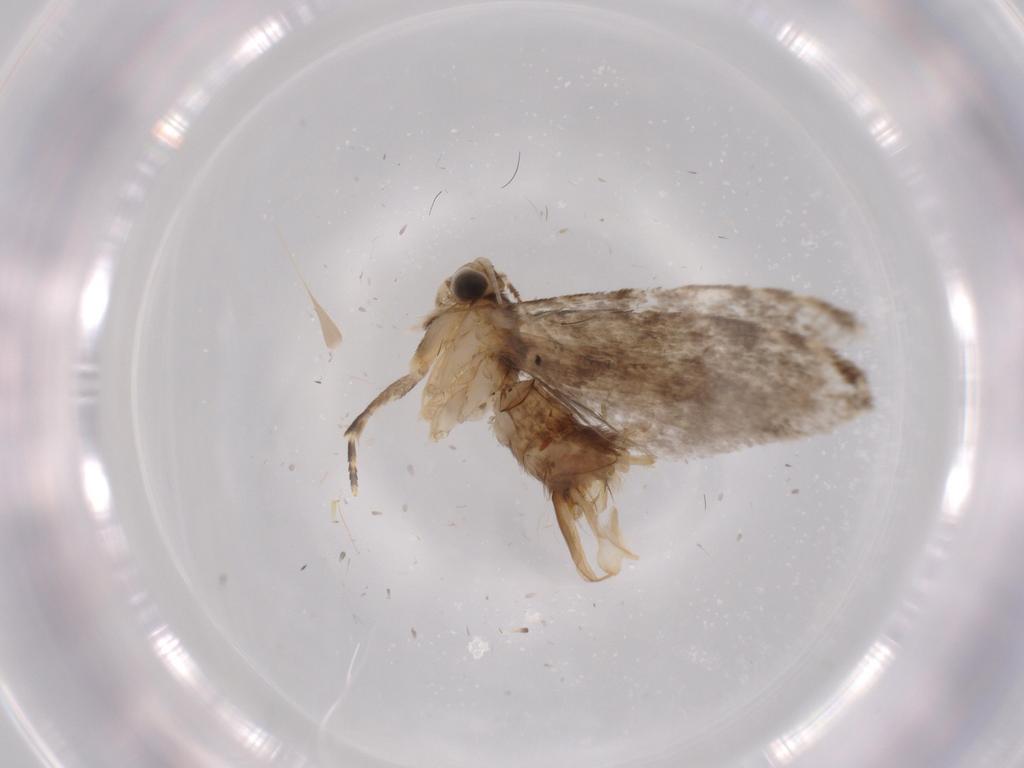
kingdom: Animalia
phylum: Arthropoda
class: Insecta
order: Lepidoptera
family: Tineidae
